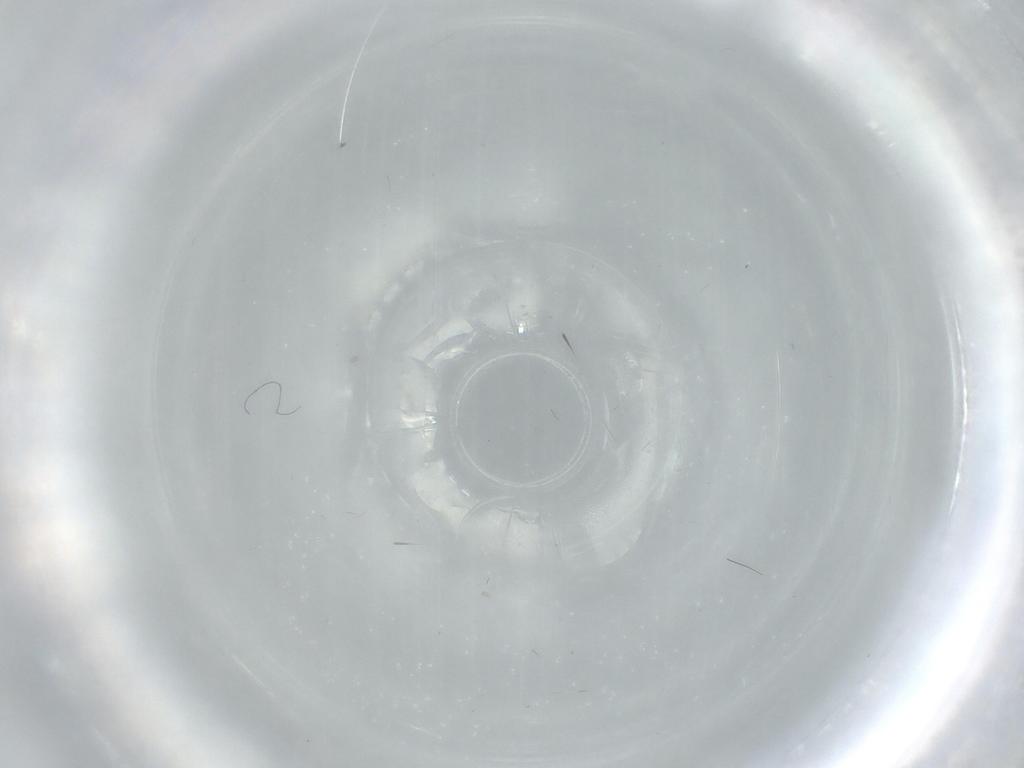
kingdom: Animalia
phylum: Arthropoda
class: Insecta
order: Psocodea
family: Caeciliusidae
